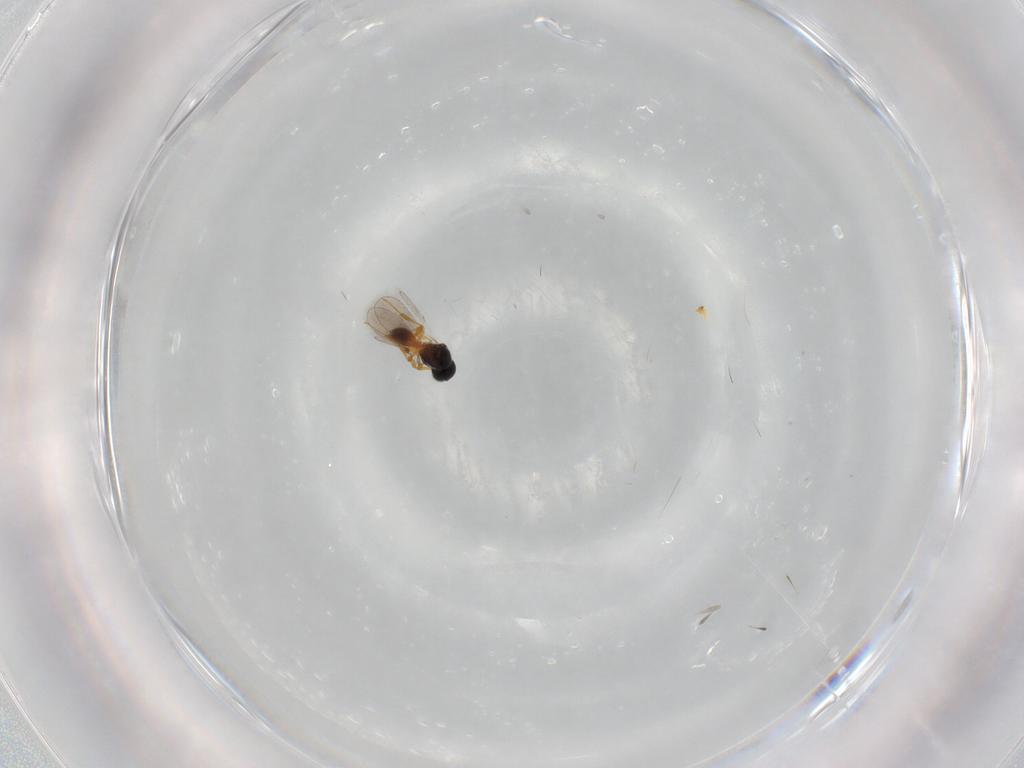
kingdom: Animalia
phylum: Arthropoda
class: Insecta
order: Hymenoptera
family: Platygastridae
